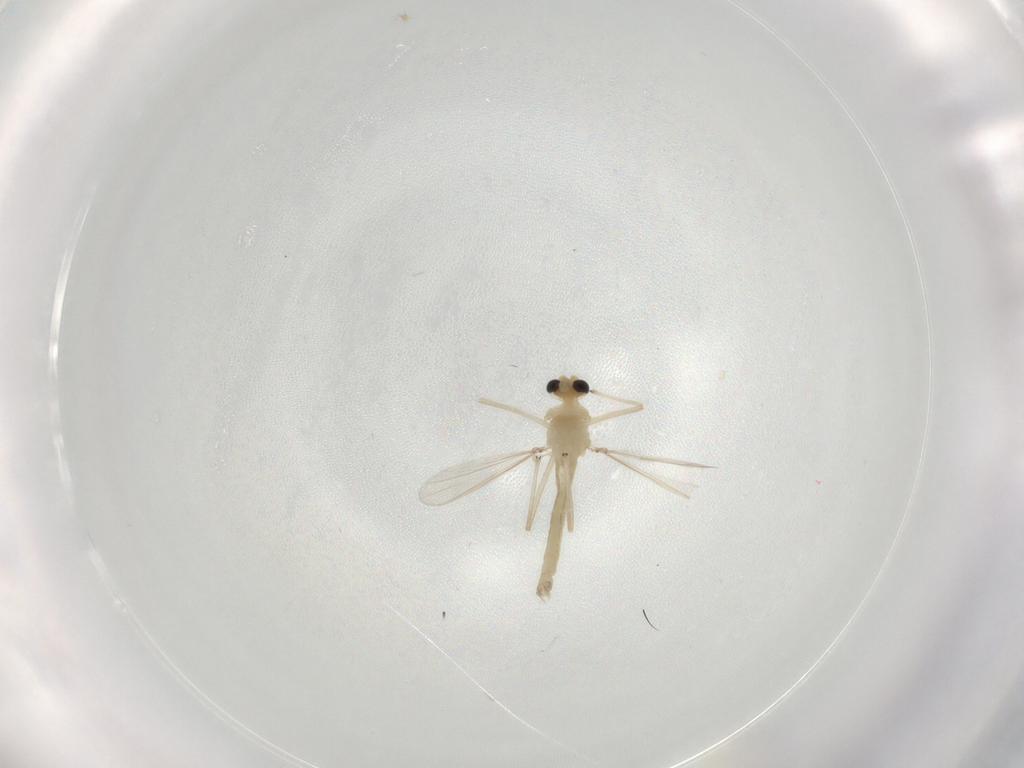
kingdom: Animalia
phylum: Arthropoda
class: Insecta
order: Diptera
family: Chironomidae
